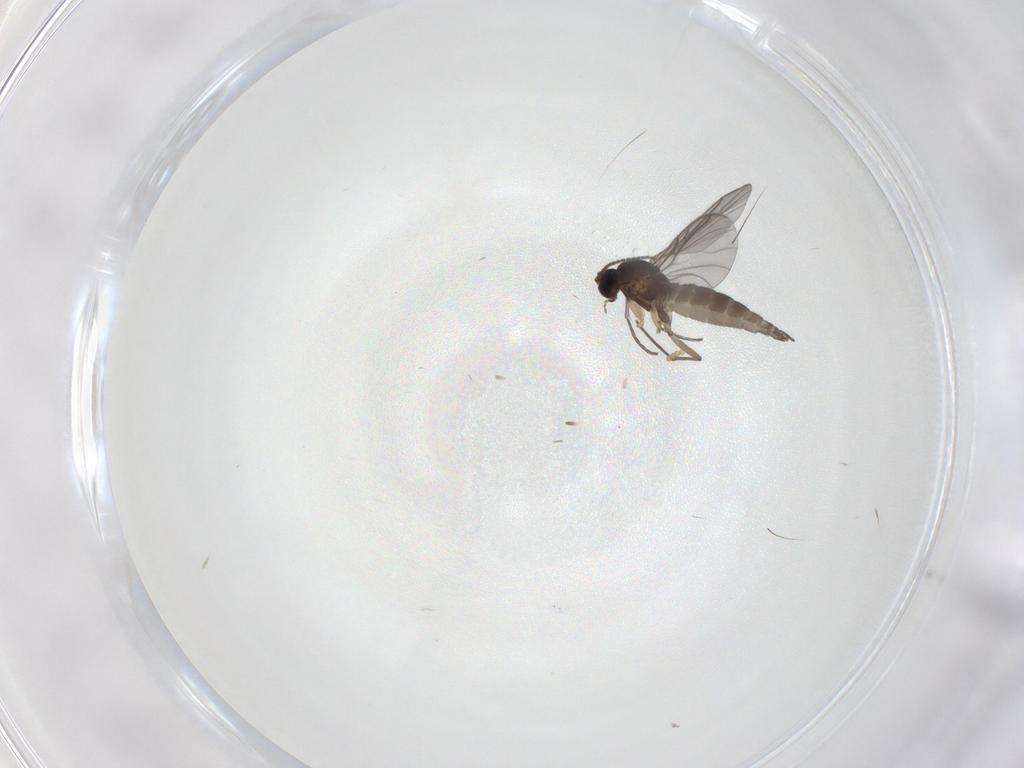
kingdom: Animalia
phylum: Arthropoda
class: Insecta
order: Diptera
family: Sciaridae
